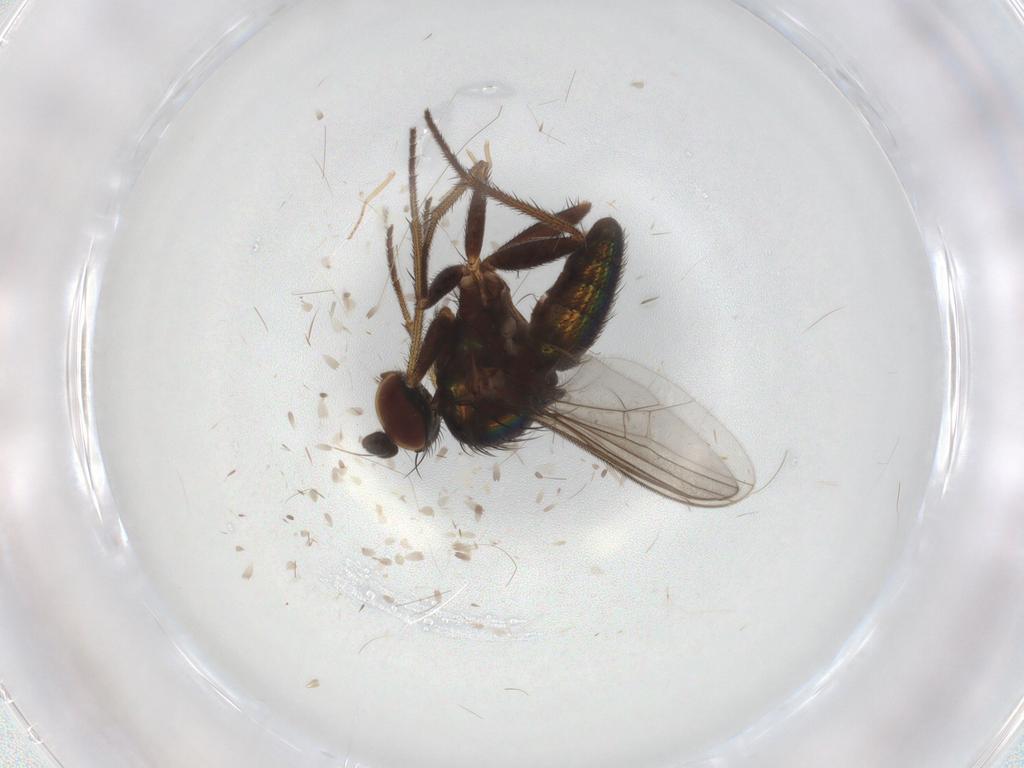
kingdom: Animalia
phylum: Arthropoda
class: Insecta
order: Diptera
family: Dolichopodidae
